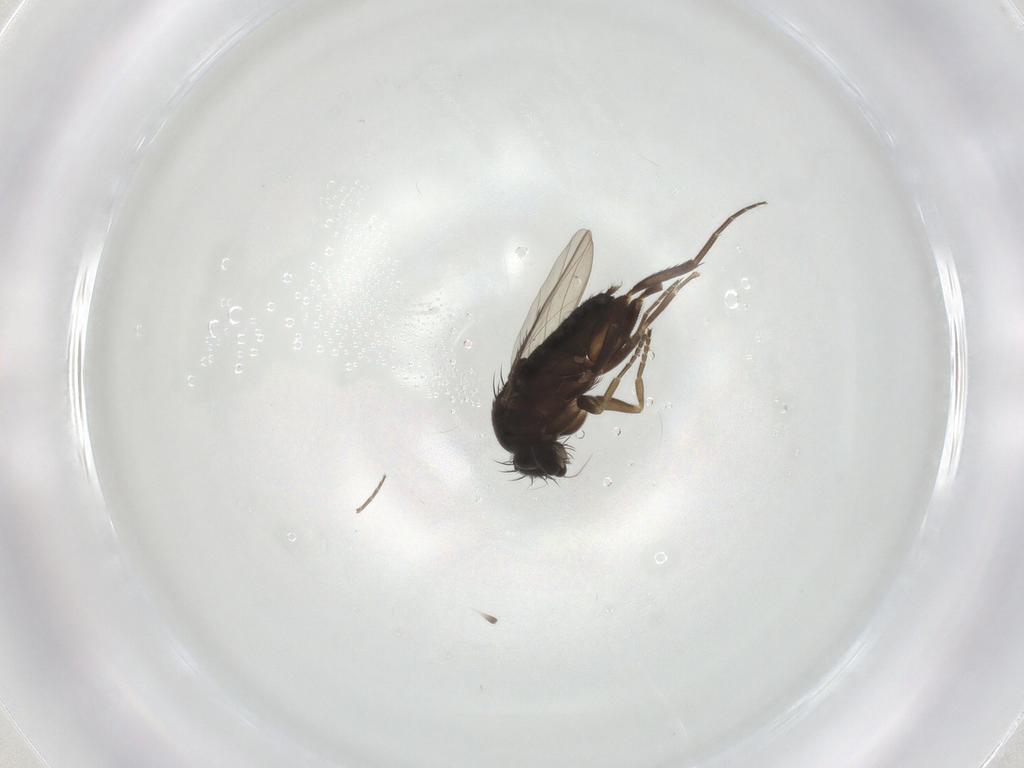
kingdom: Animalia
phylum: Arthropoda
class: Insecta
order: Diptera
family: Phoridae
